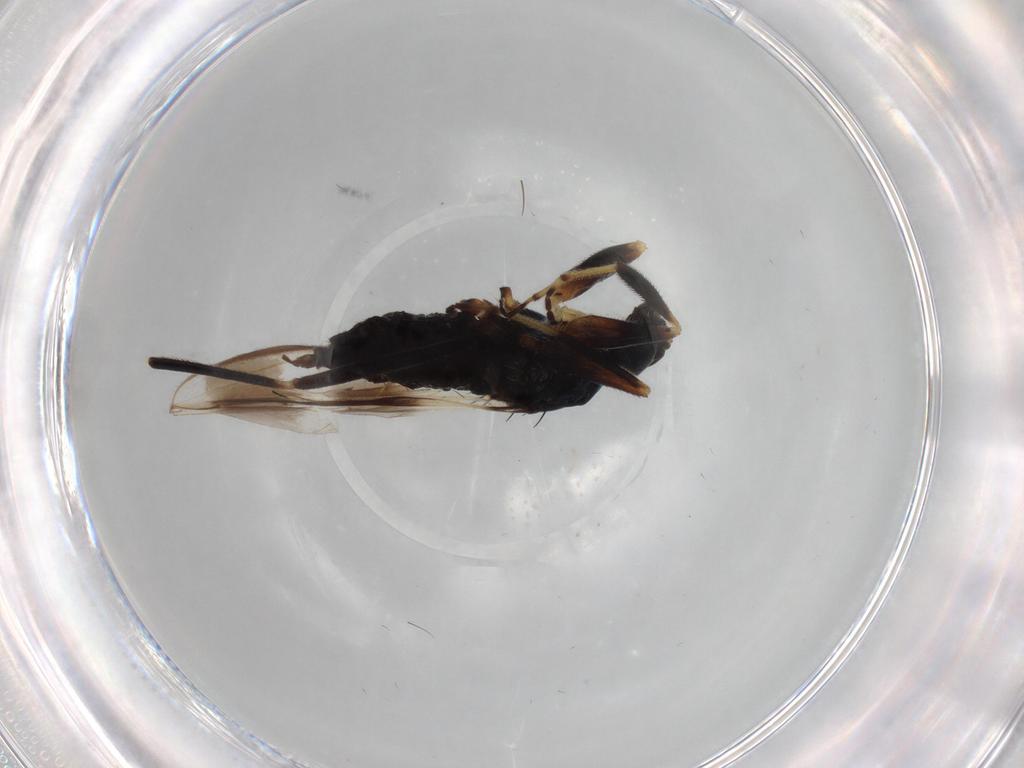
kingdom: Animalia
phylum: Arthropoda
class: Insecta
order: Diptera
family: Hybotidae
